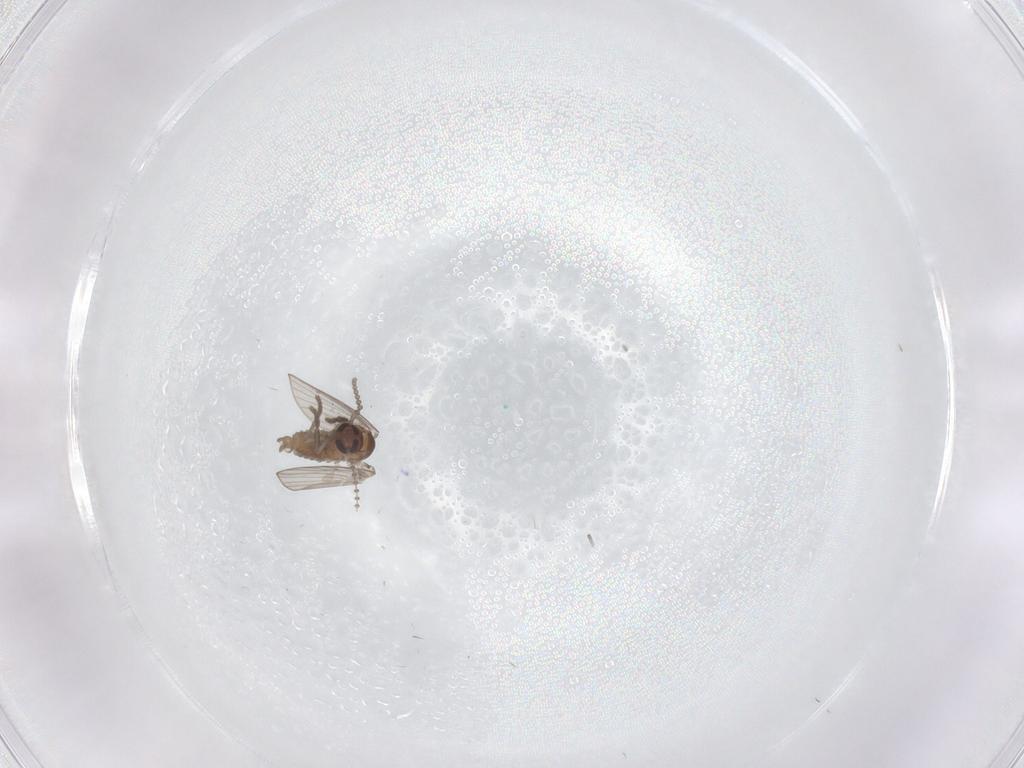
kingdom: Animalia
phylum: Arthropoda
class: Insecta
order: Diptera
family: Psychodidae
